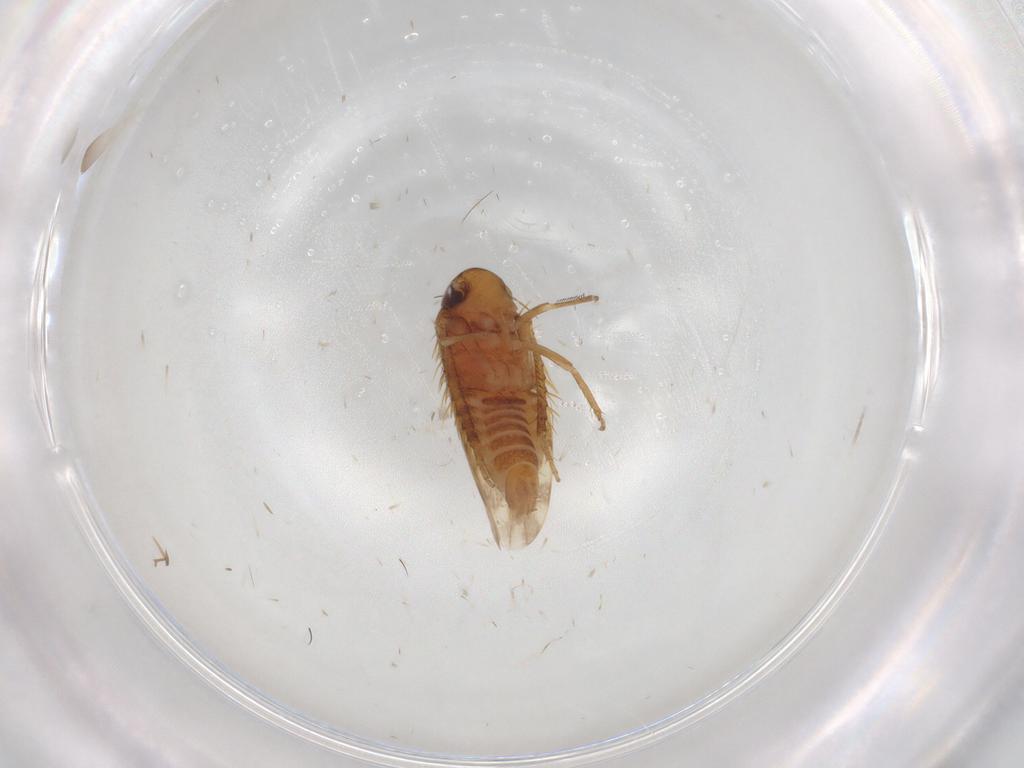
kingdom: Animalia
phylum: Arthropoda
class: Insecta
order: Hemiptera
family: Cicadellidae
